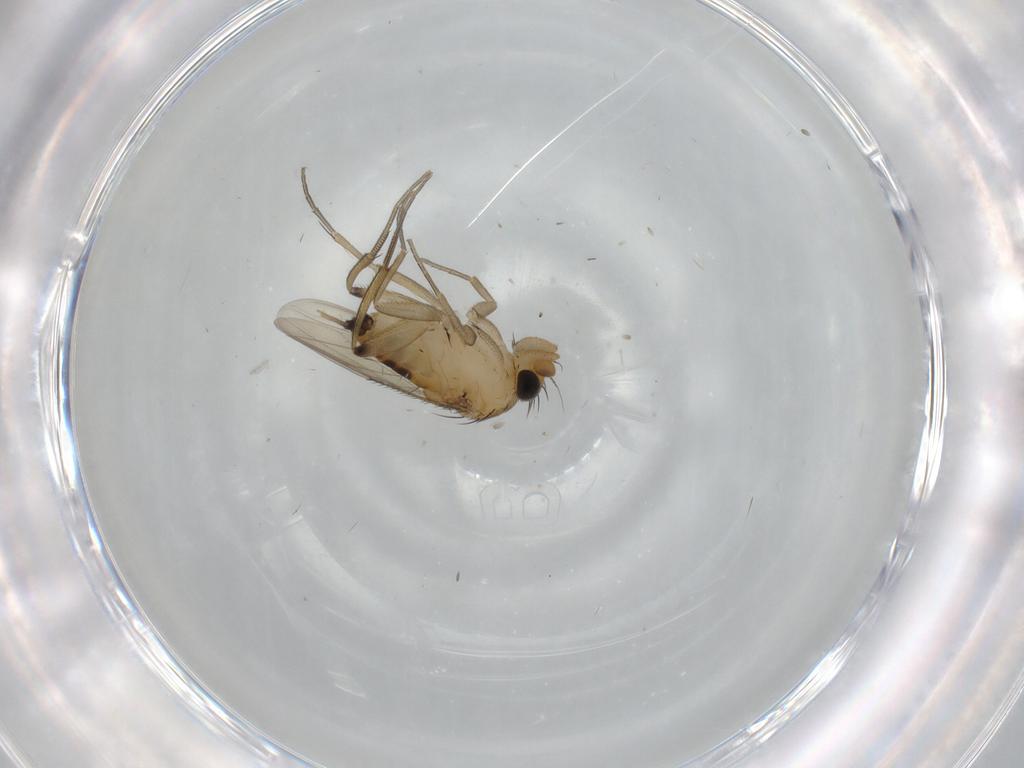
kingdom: Animalia
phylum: Arthropoda
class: Insecta
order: Diptera
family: Phoridae
